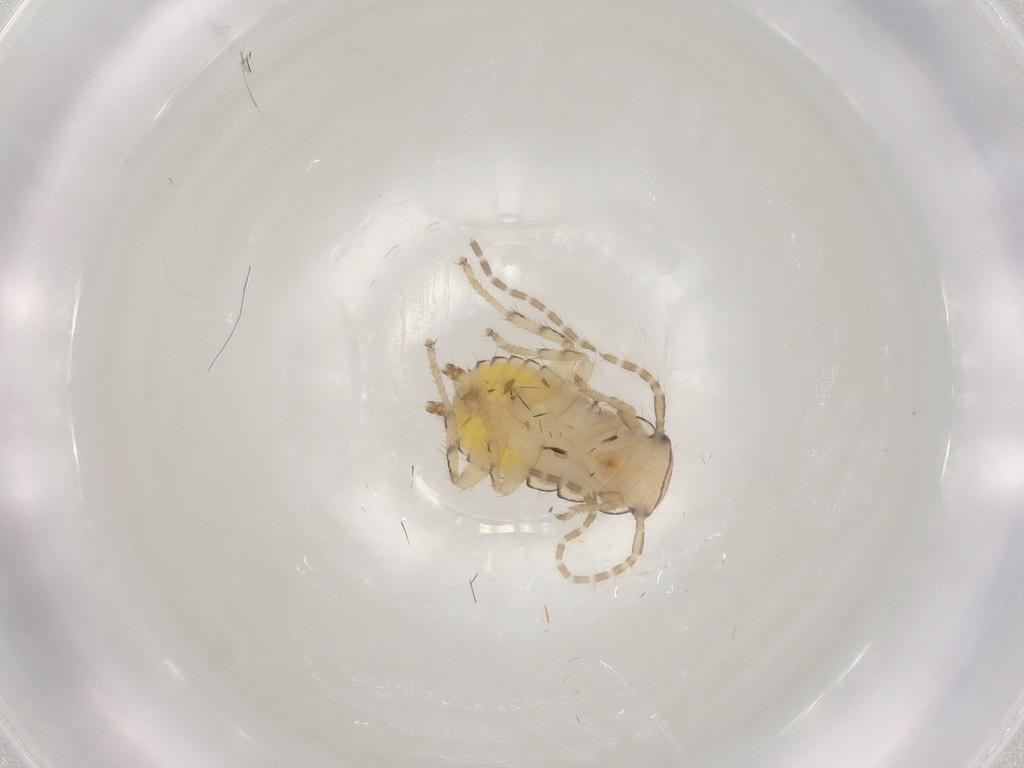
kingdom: Animalia
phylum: Arthropoda
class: Insecta
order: Blattodea
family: Ectobiidae
